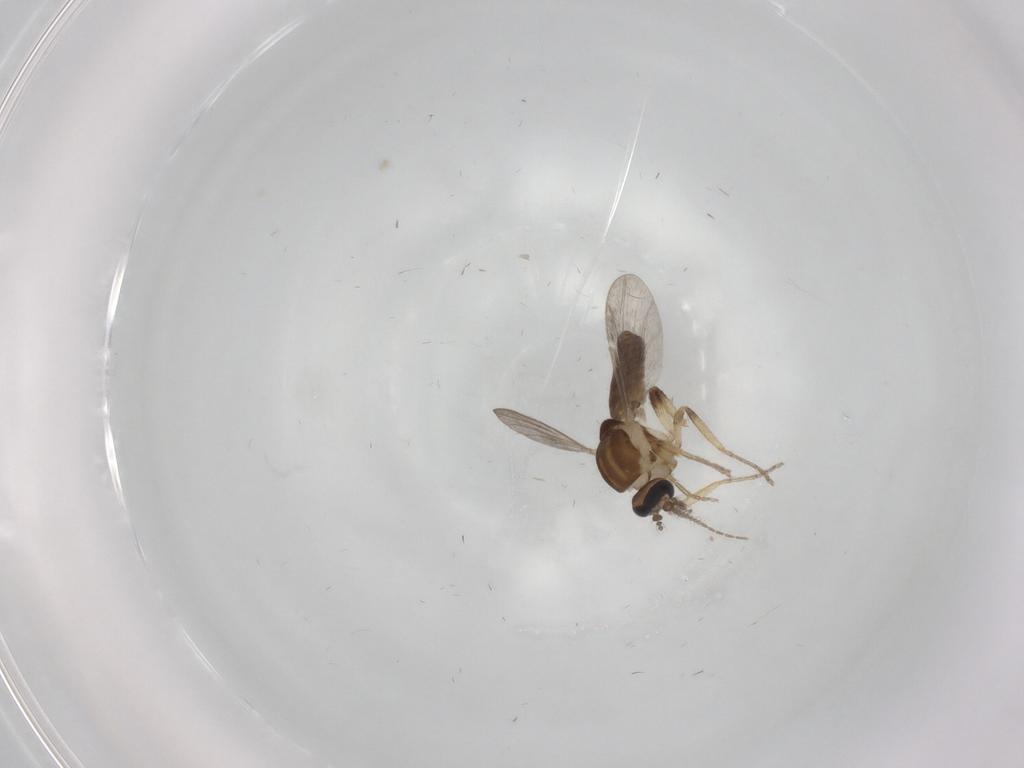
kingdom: Animalia
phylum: Arthropoda
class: Insecta
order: Diptera
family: Ceratopogonidae
